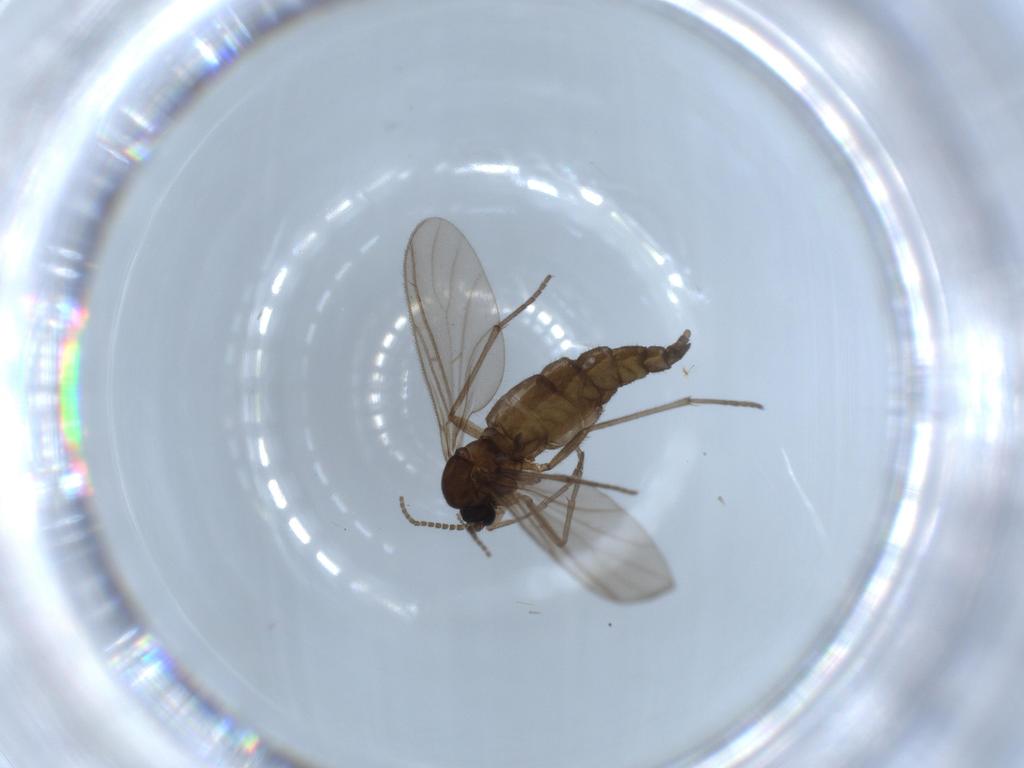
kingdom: Animalia
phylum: Arthropoda
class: Insecta
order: Diptera
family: Sciaridae
